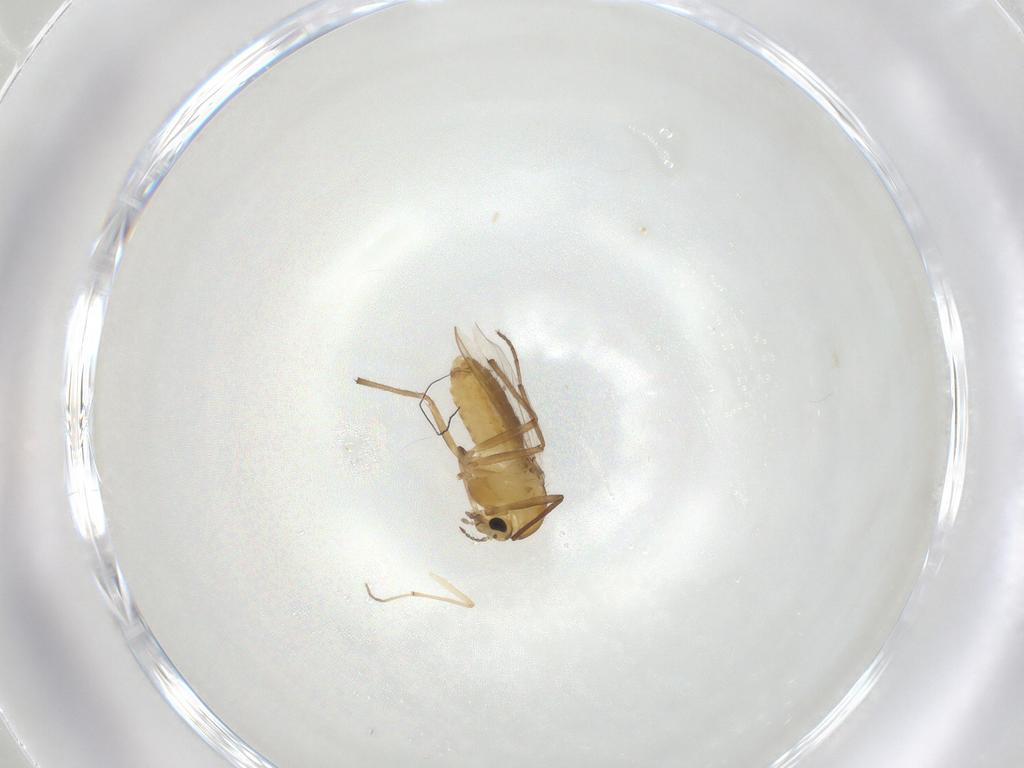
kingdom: Animalia
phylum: Arthropoda
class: Insecta
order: Diptera
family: Chironomidae
